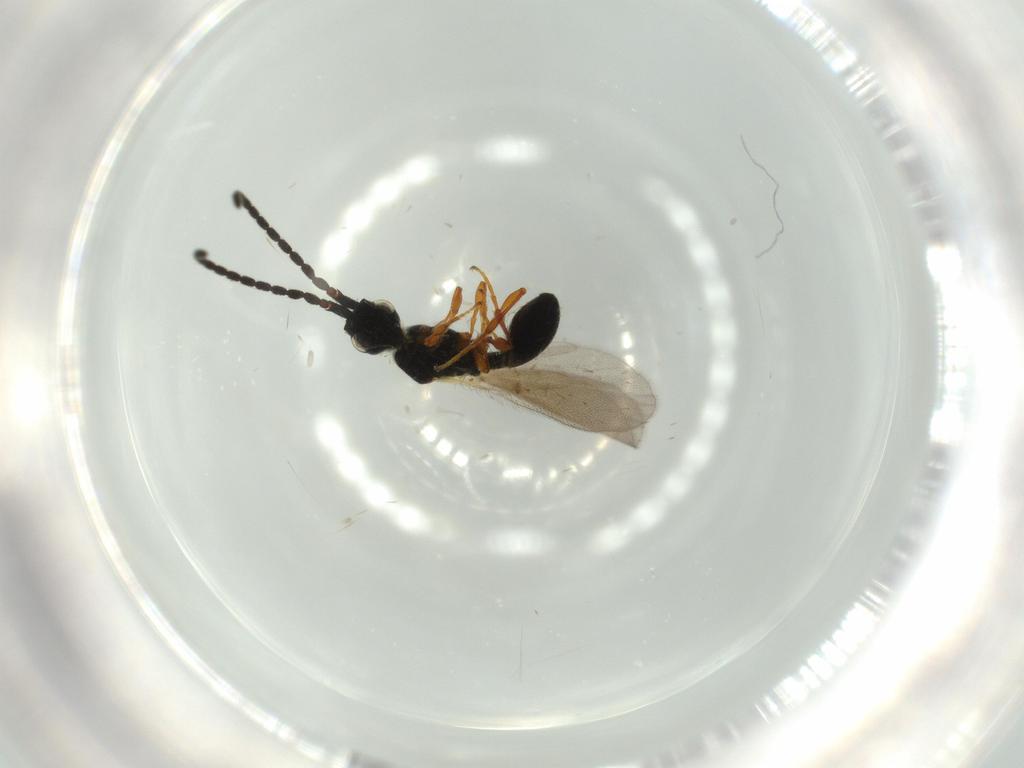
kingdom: Animalia
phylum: Arthropoda
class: Insecta
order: Hymenoptera
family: Diapriidae
